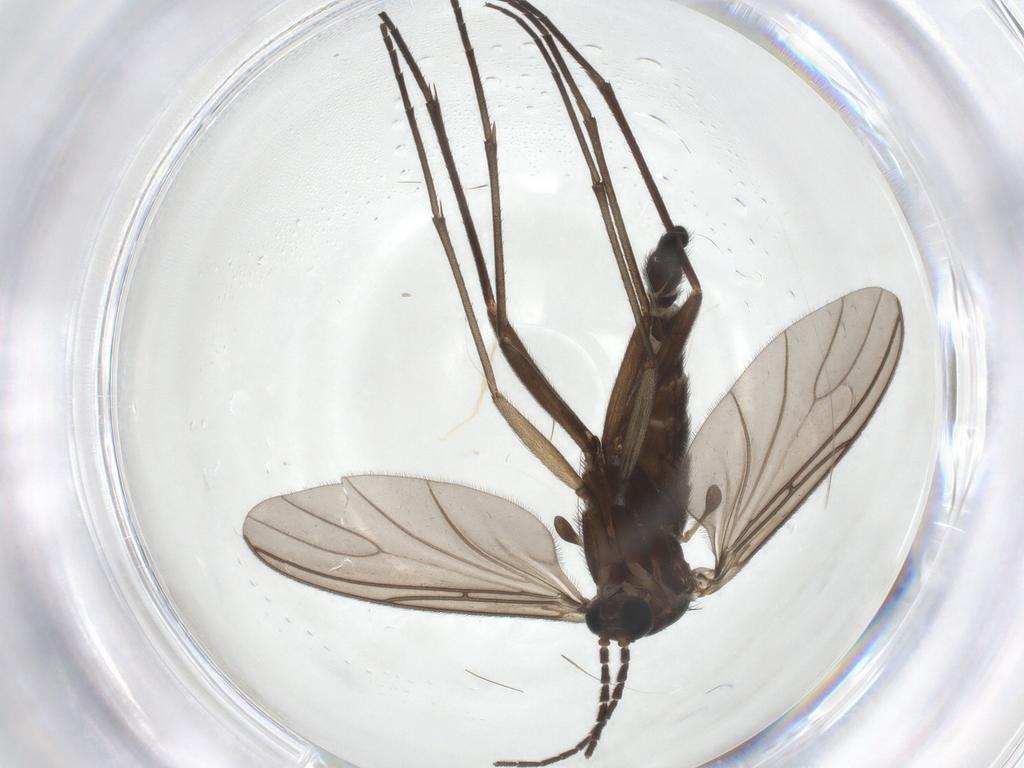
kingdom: Animalia
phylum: Arthropoda
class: Insecta
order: Diptera
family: Sciaridae
